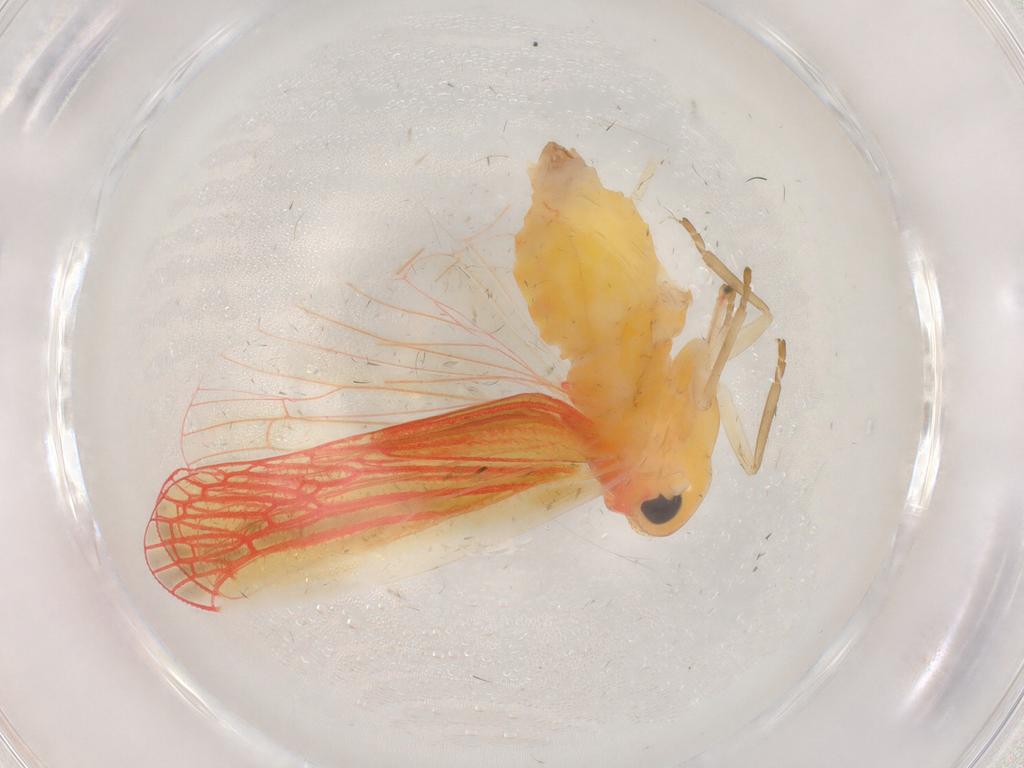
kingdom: Animalia
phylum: Arthropoda
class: Insecta
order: Hemiptera
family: Derbidae
